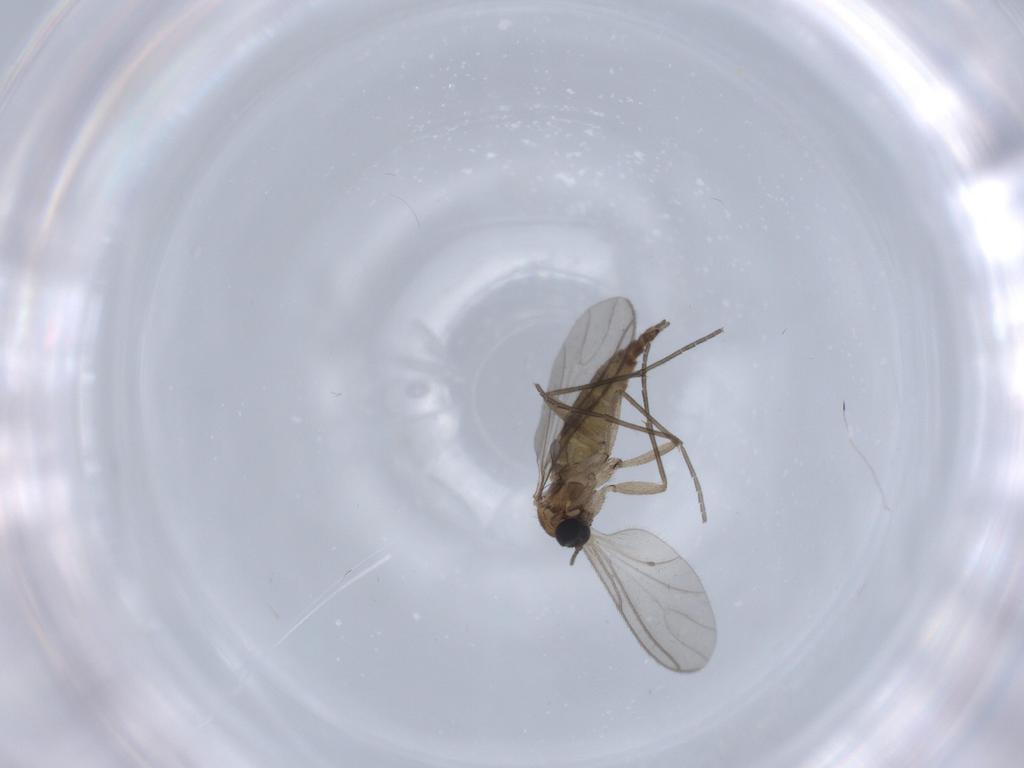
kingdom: Animalia
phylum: Arthropoda
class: Insecta
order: Diptera
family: Sciaridae
